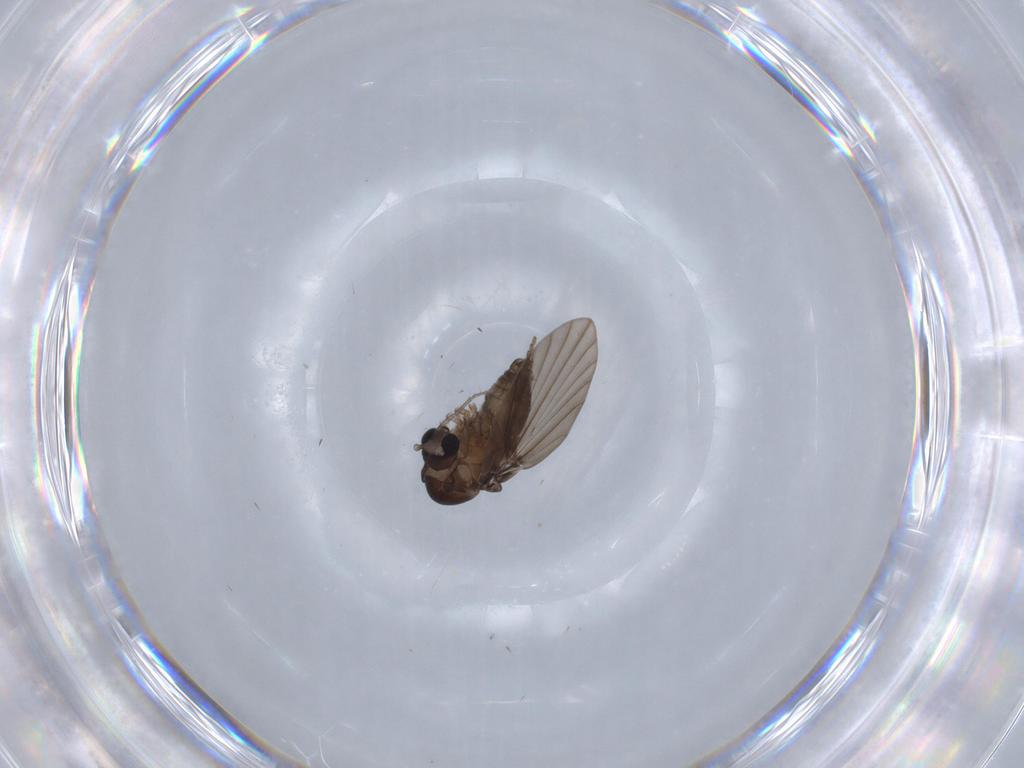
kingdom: Animalia
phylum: Arthropoda
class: Insecta
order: Diptera
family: Psychodidae
